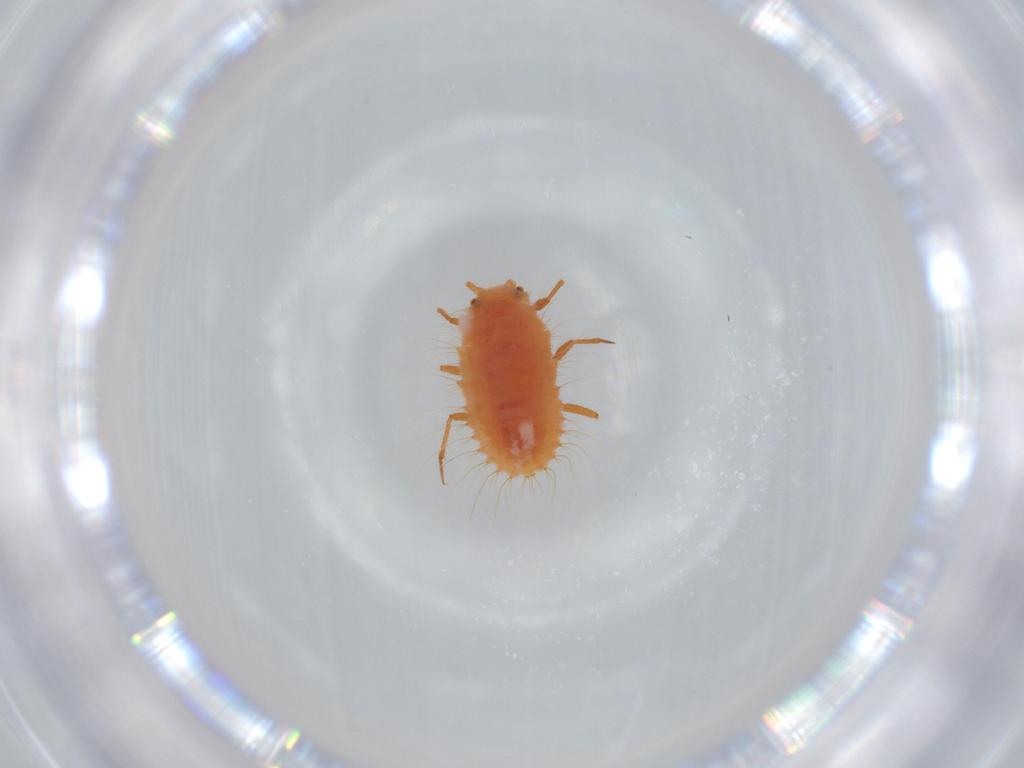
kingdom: Animalia
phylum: Arthropoda
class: Insecta
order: Hemiptera
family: Coccoidea_incertae_sedis
